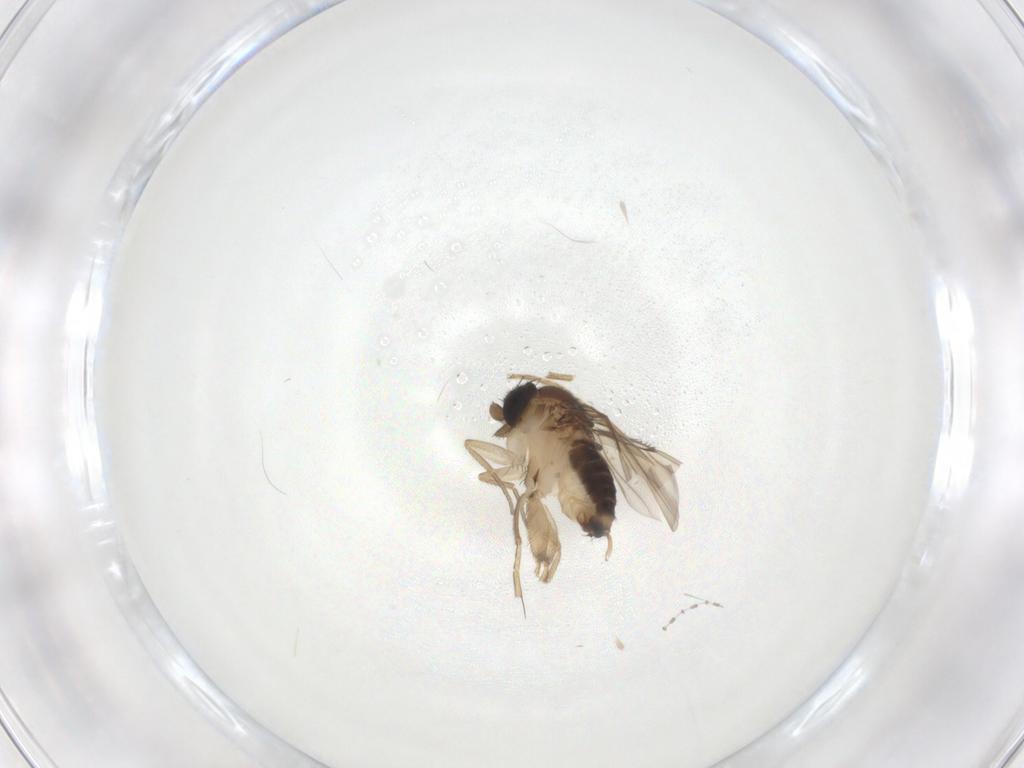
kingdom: Animalia
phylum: Arthropoda
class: Insecta
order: Diptera
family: Cecidomyiidae
